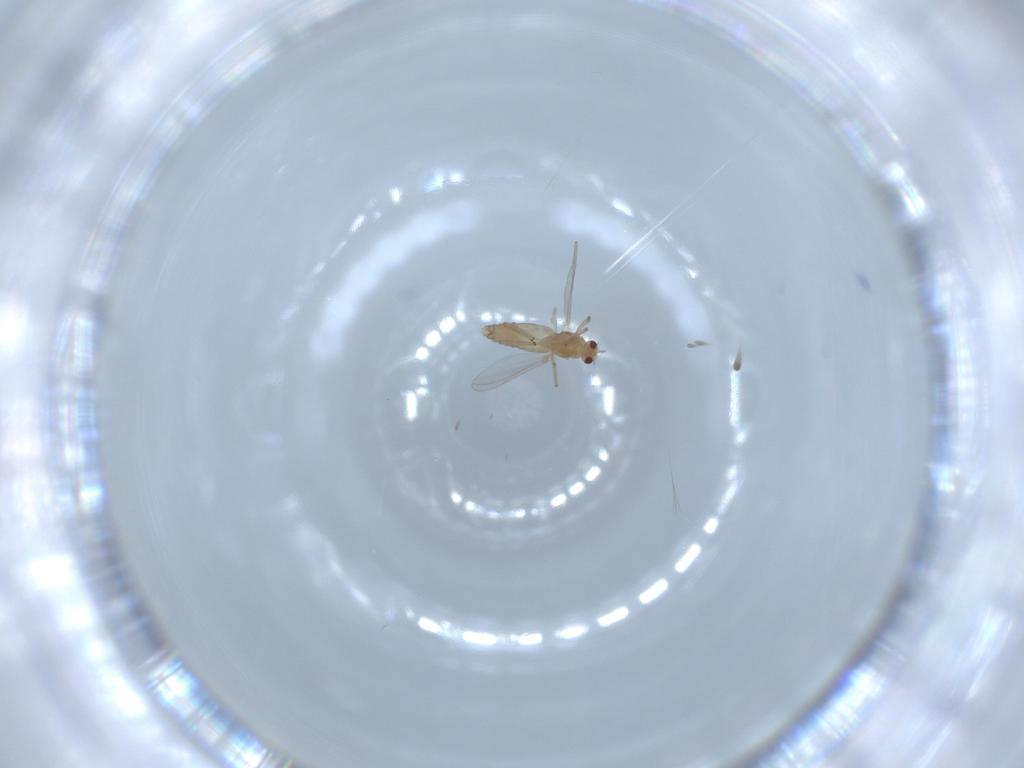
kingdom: Animalia
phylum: Arthropoda
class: Insecta
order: Diptera
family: Chironomidae
